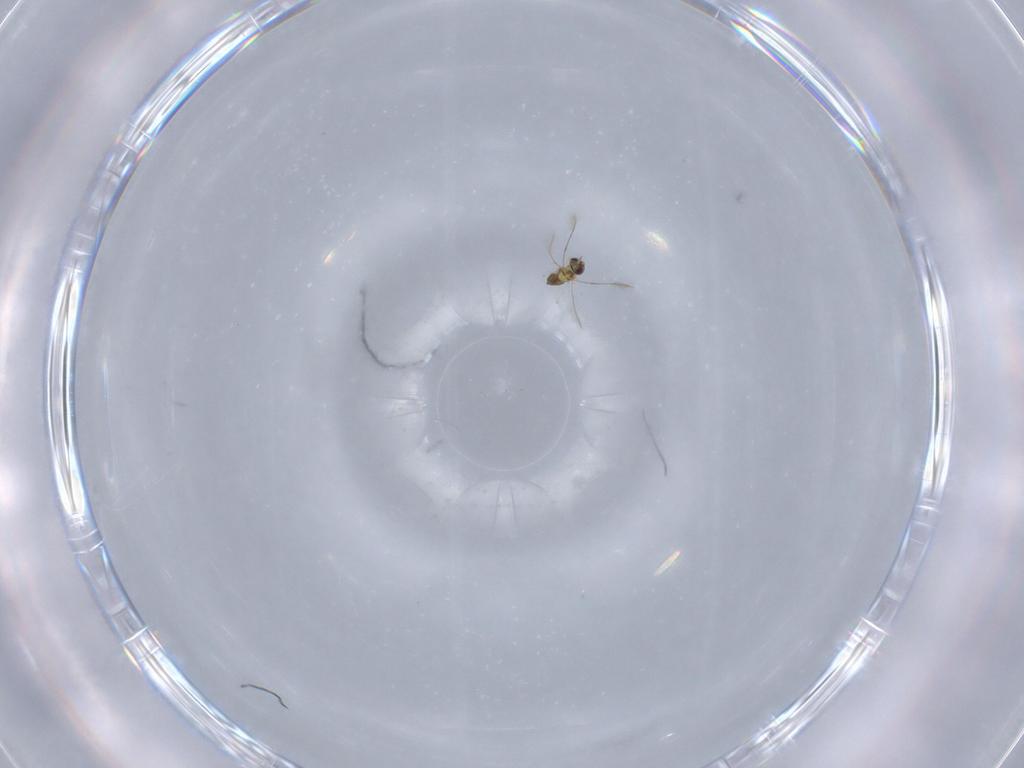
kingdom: Animalia
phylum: Arthropoda
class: Insecta
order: Hymenoptera
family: Mymaridae
